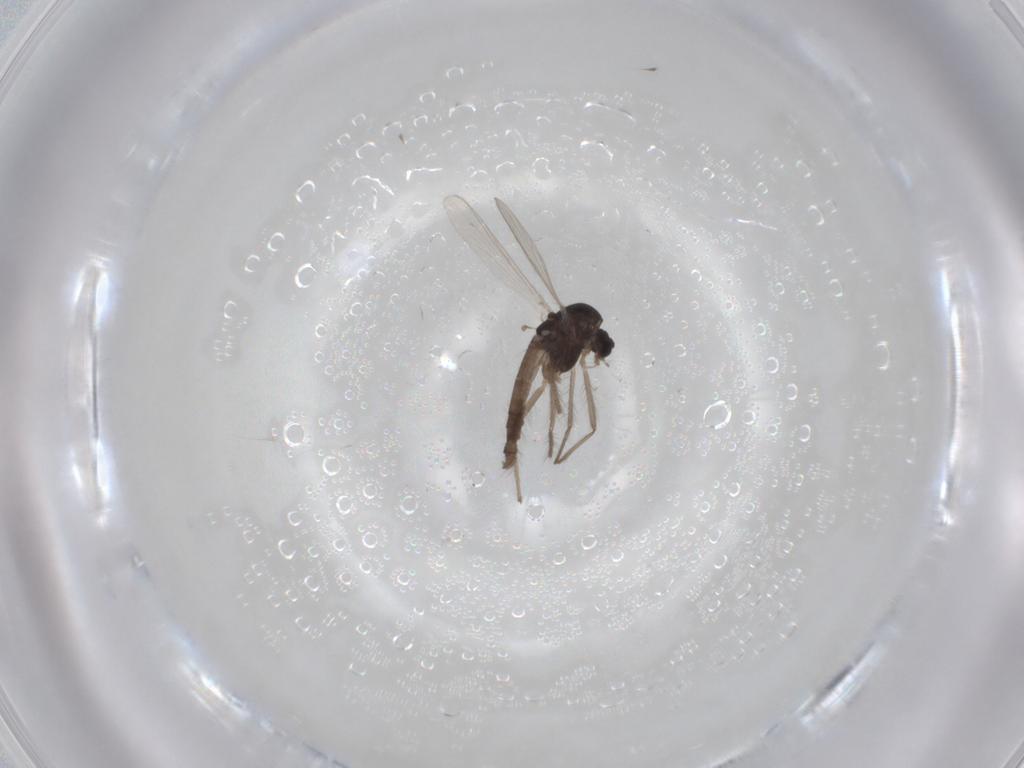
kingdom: Animalia
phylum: Arthropoda
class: Insecta
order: Diptera
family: Chironomidae
